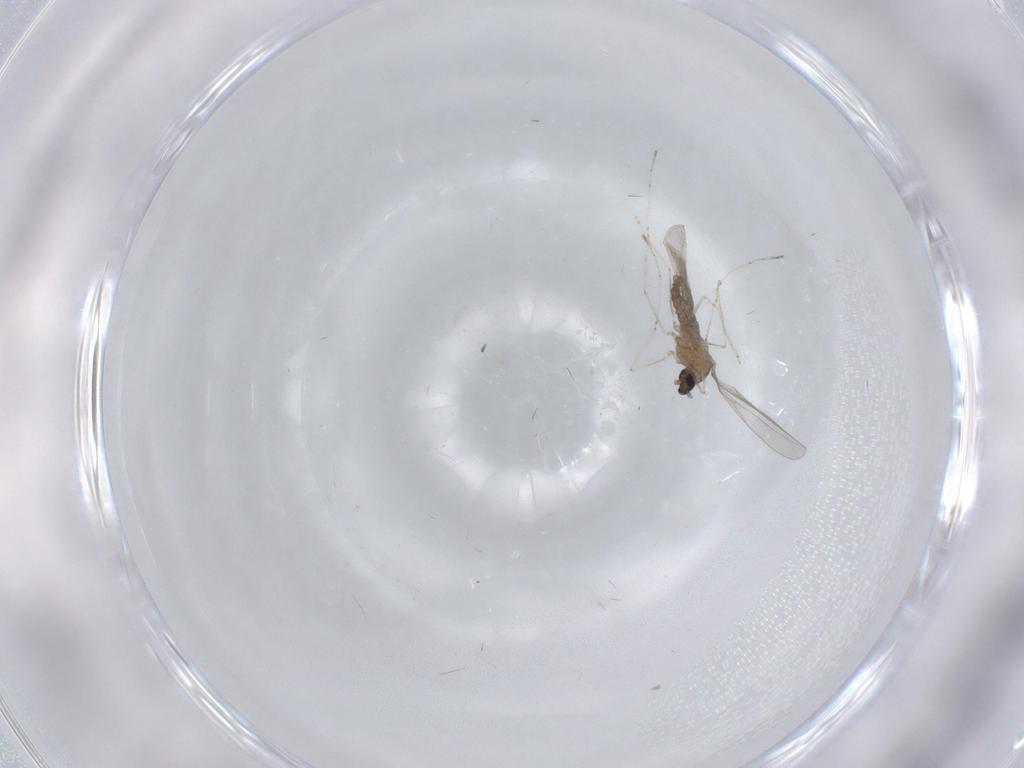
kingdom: Animalia
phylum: Arthropoda
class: Insecta
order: Diptera
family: Cecidomyiidae
